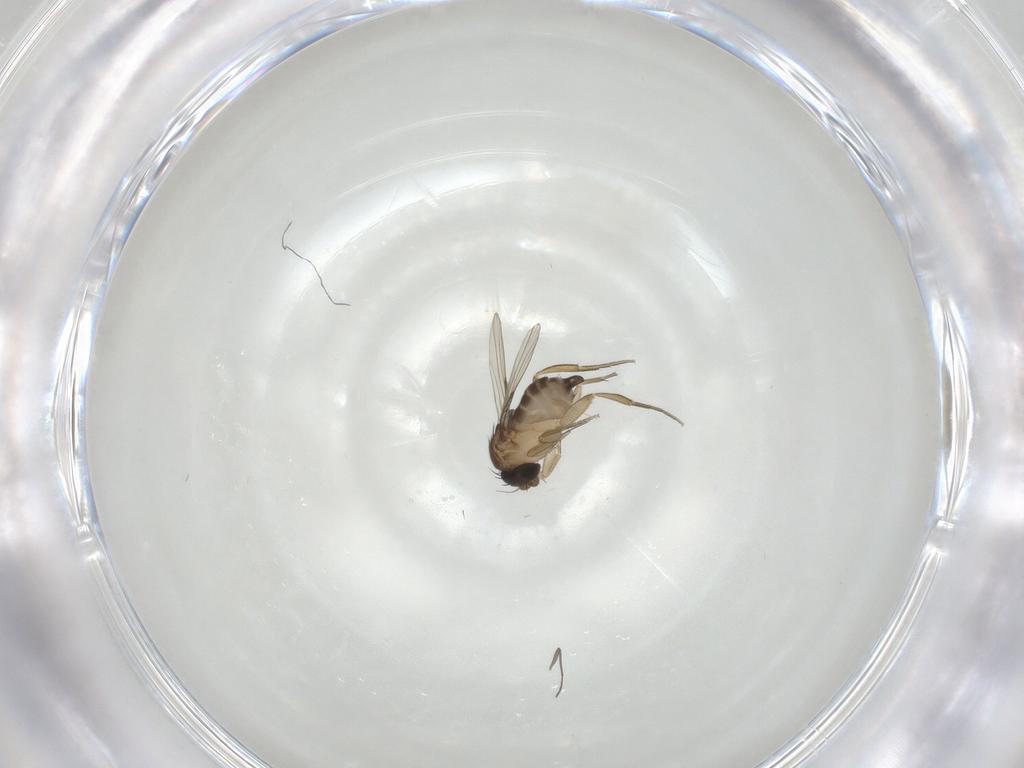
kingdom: Animalia
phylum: Arthropoda
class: Insecta
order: Diptera
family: Chironomidae
